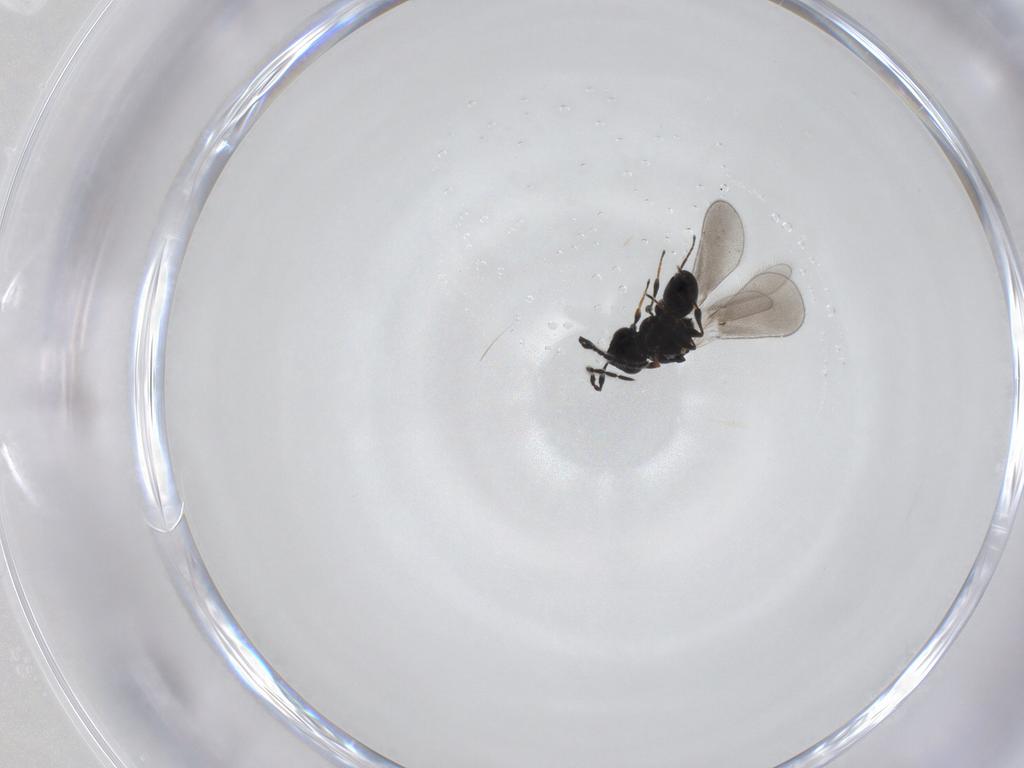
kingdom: Animalia
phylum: Arthropoda
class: Insecta
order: Hymenoptera
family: Platygastridae
